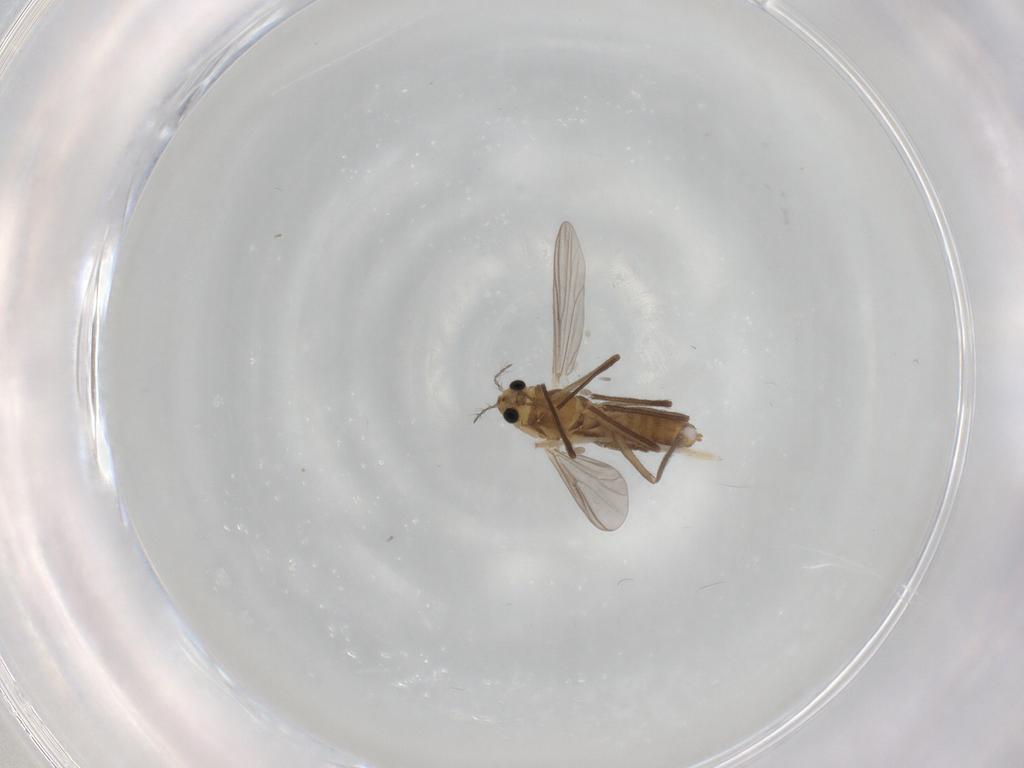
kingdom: Animalia
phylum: Arthropoda
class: Insecta
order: Diptera
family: Chironomidae
